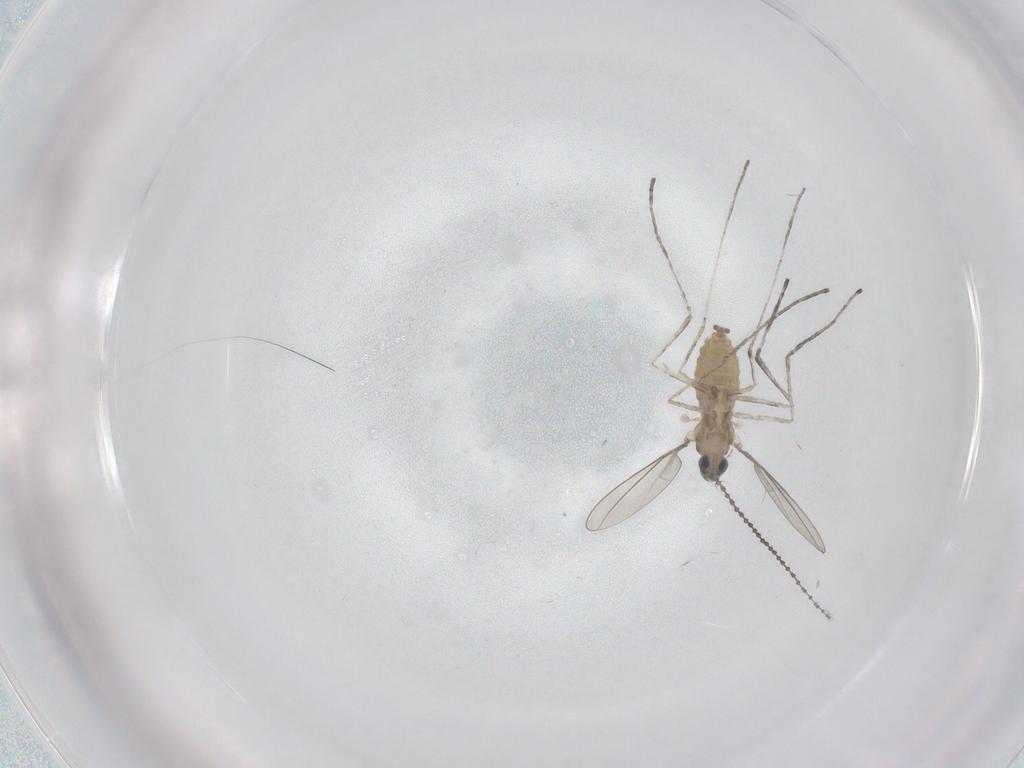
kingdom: Animalia
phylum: Arthropoda
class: Insecta
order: Diptera
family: Cecidomyiidae
